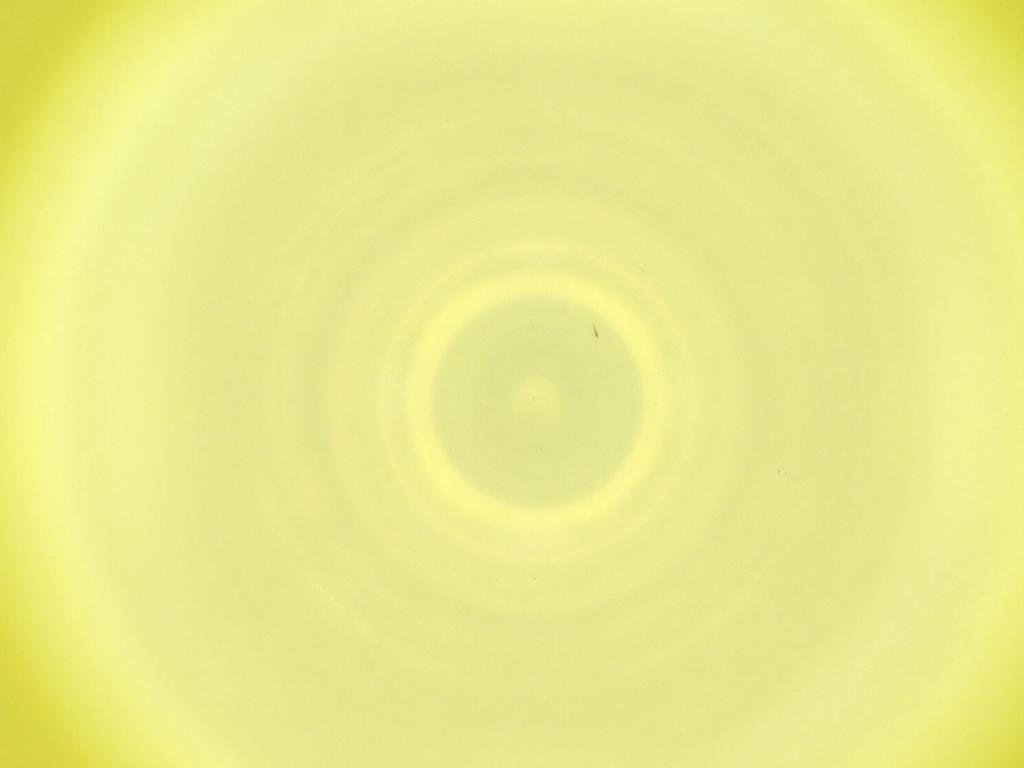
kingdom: Animalia
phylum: Arthropoda
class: Insecta
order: Diptera
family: Cecidomyiidae
